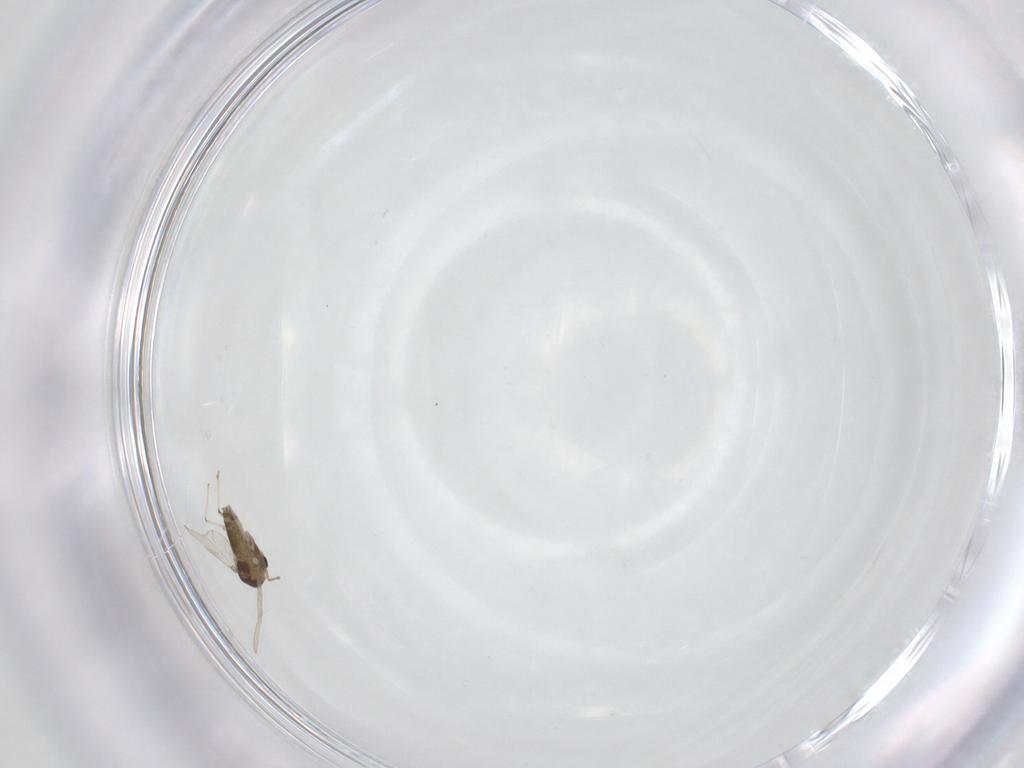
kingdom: Animalia
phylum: Arthropoda
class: Insecta
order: Diptera
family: Chironomidae
